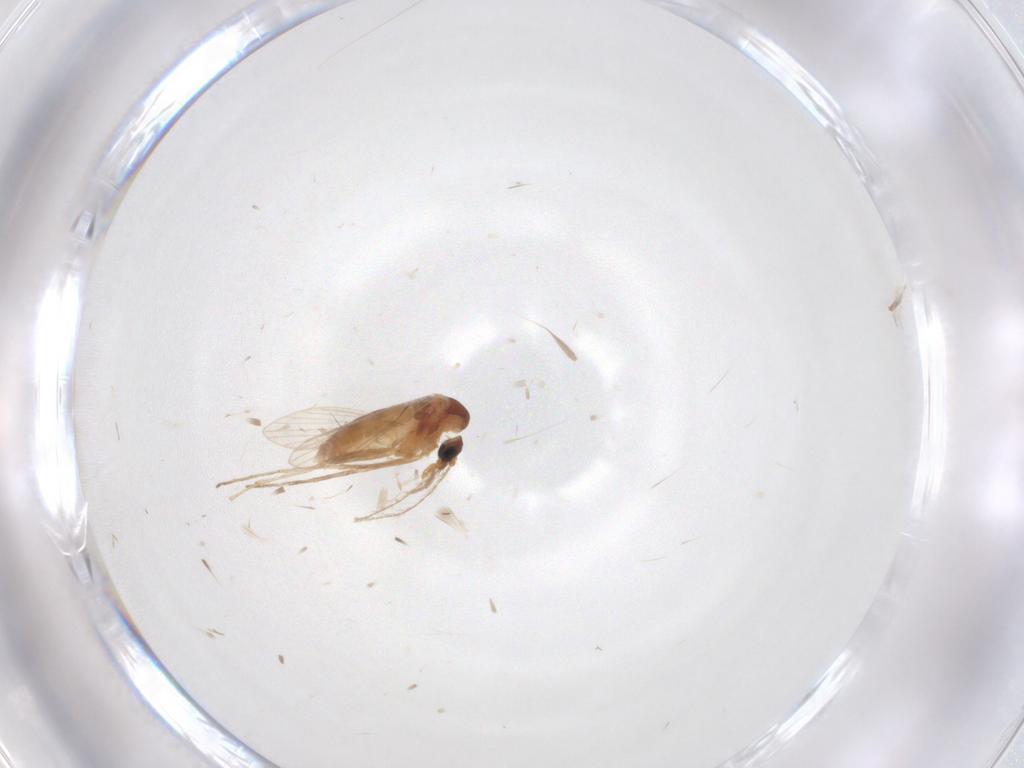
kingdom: Animalia
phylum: Arthropoda
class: Insecta
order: Diptera
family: Psychodidae
